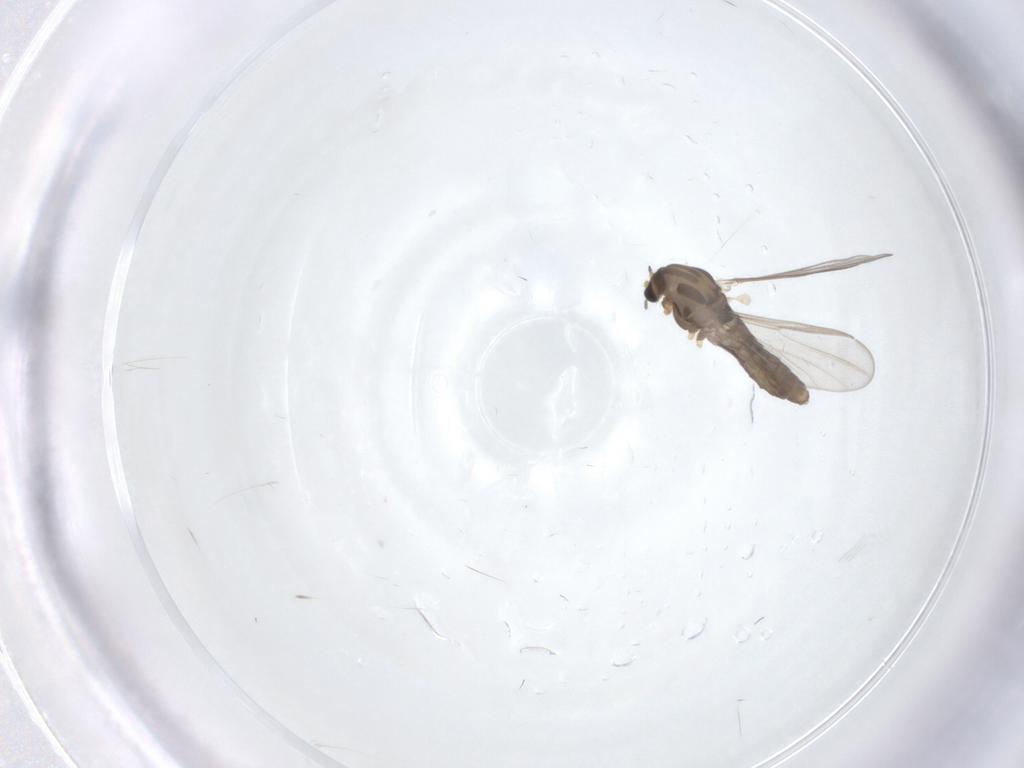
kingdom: Animalia
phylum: Arthropoda
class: Insecta
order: Diptera
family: Chironomidae
